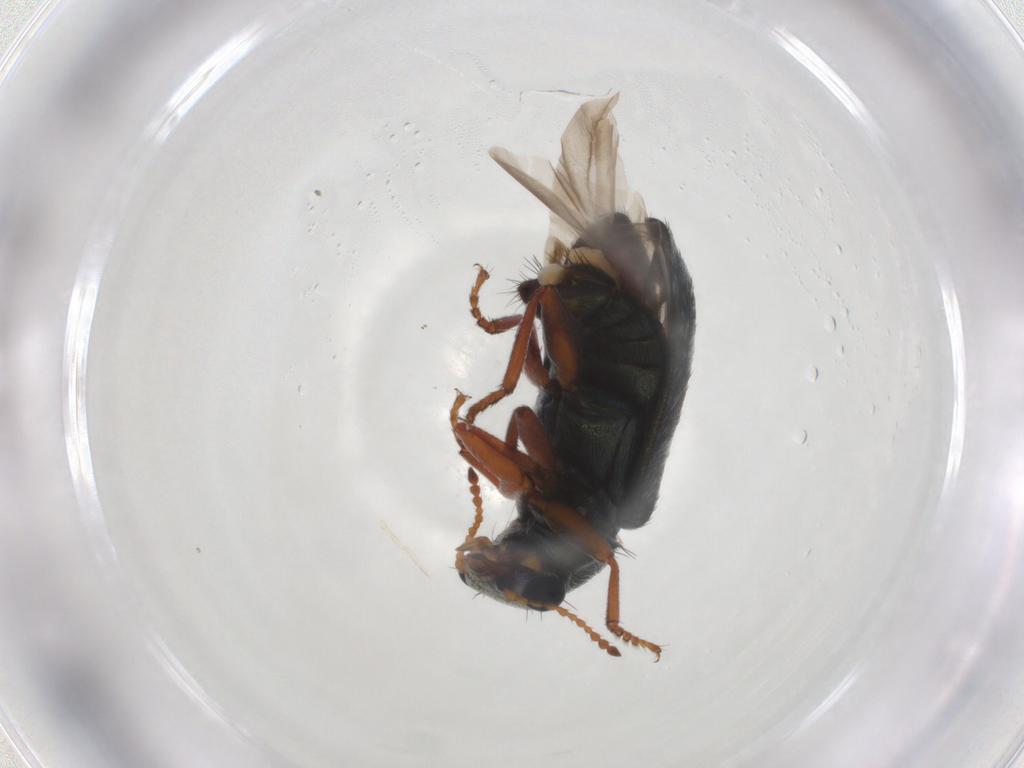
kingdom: Animalia
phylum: Arthropoda
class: Insecta
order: Coleoptera
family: Melyridae
